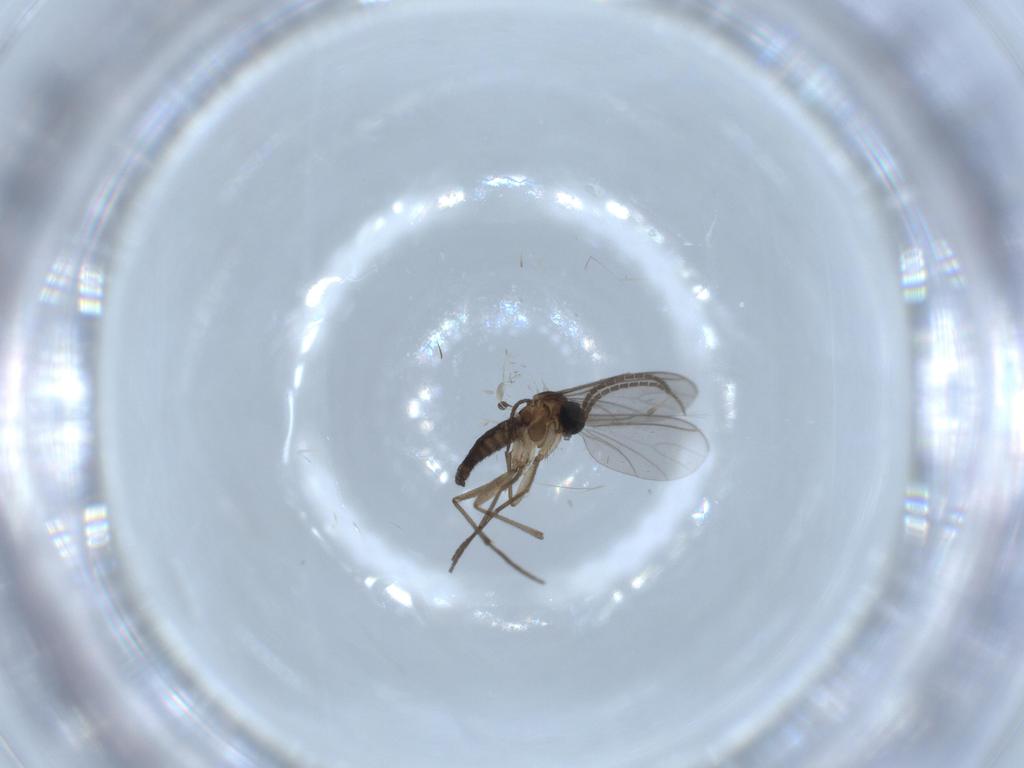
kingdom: Animalia
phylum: Arthropoda
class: Insecta
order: Diptera
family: Sciaridae
